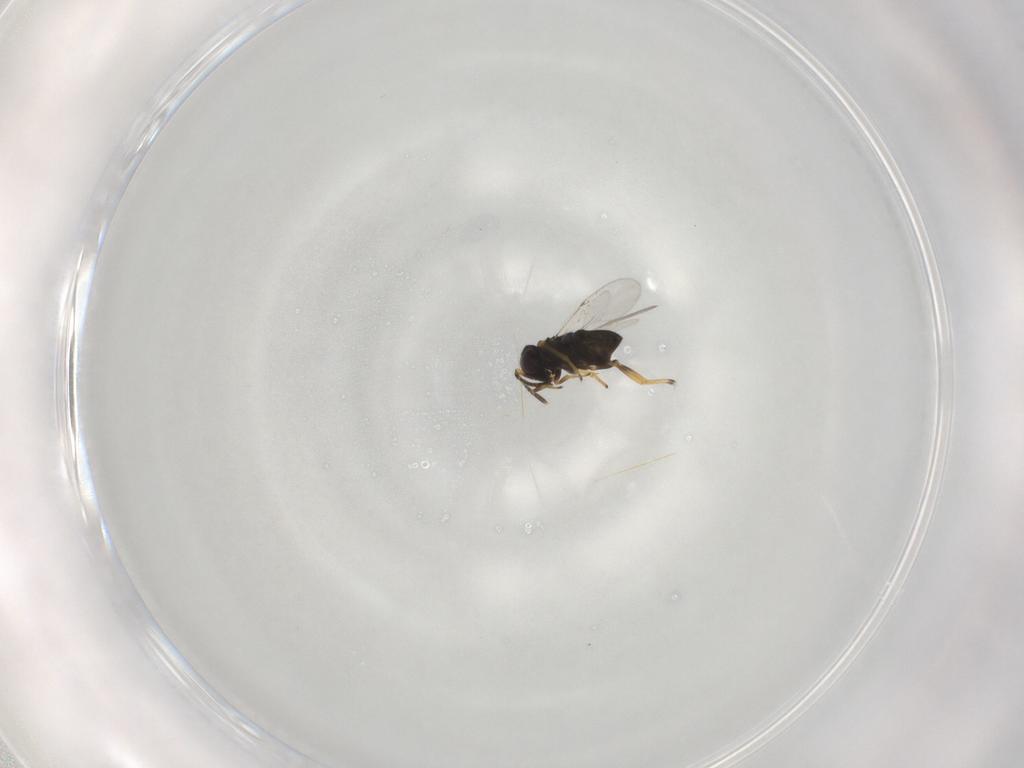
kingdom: Animalia
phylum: Arthropoda
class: Insecta
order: Hymenoptera
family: Encyrtidae
